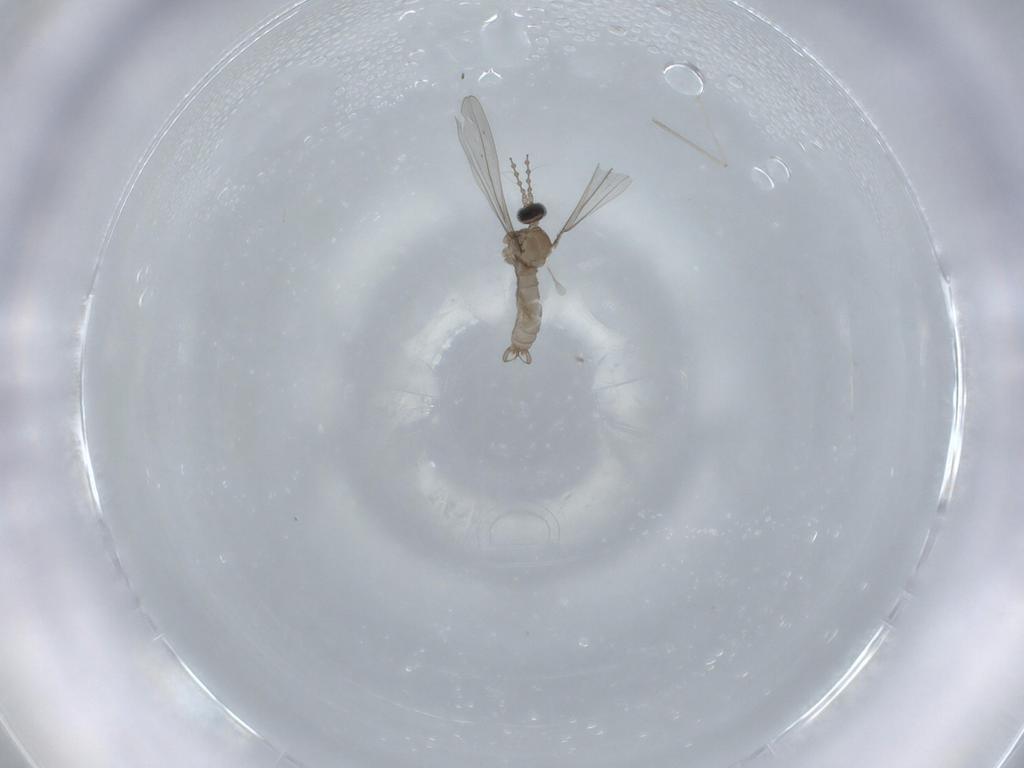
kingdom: Animalia
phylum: Arthropoda
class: Insecta
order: Diptera
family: Cecidomyiidae
